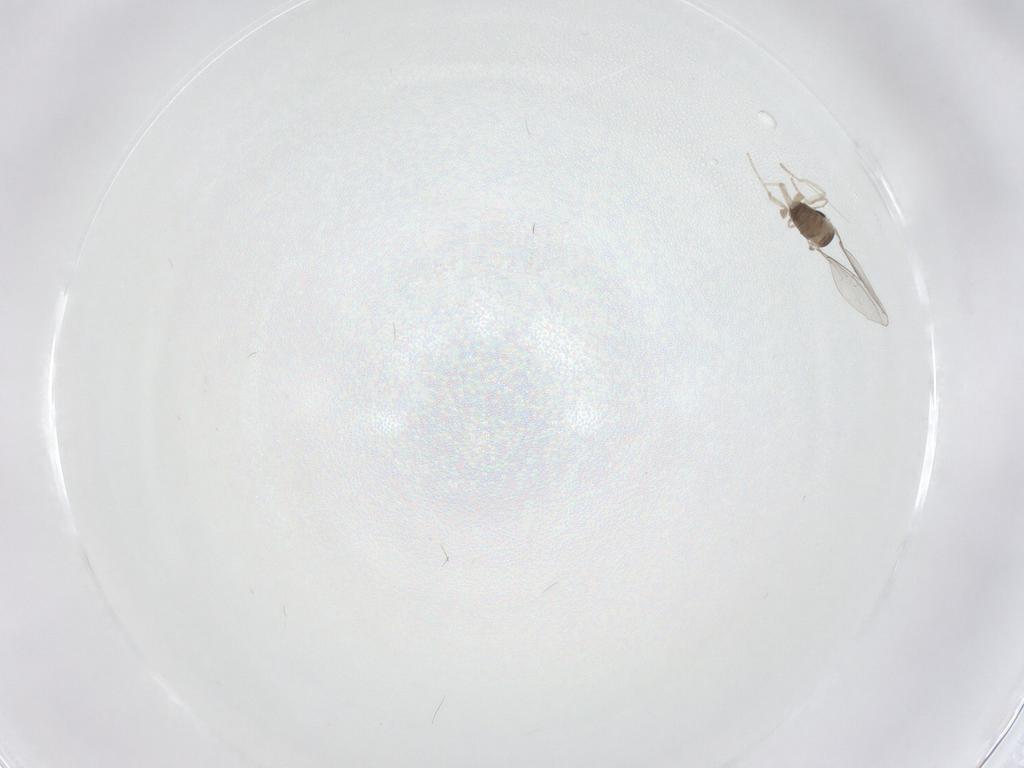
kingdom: Animalia
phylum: Arthropoda
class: Insecta
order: Diptera
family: Cecidomyiidae
